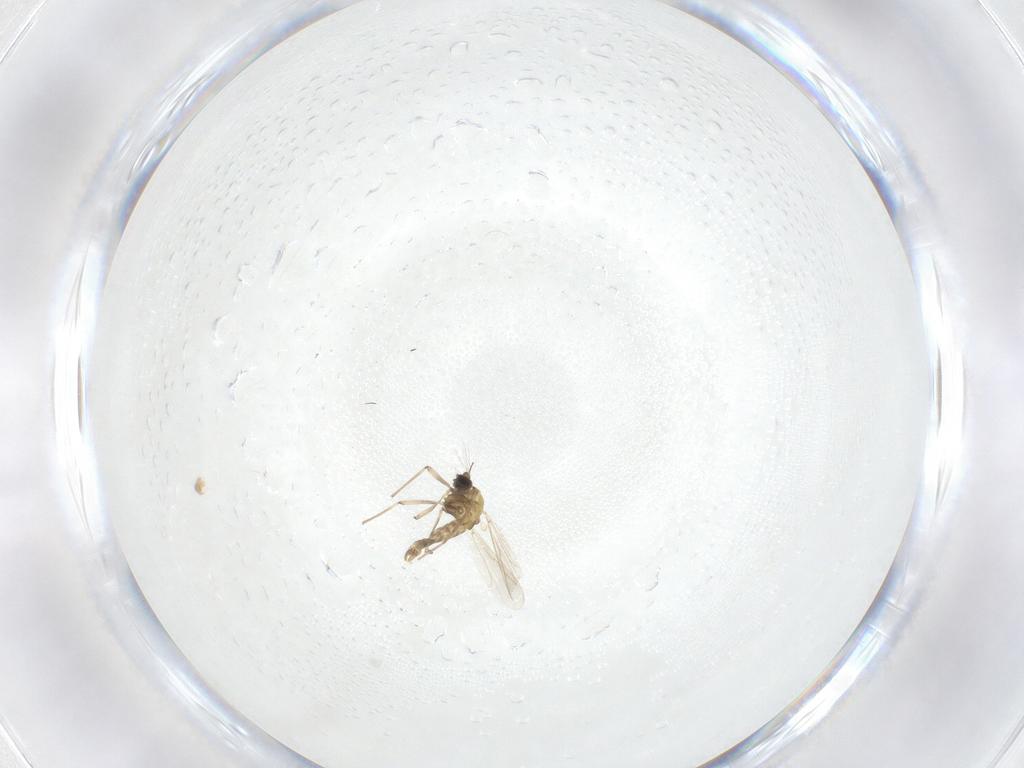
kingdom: Animalia
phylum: Arthropoda
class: Insecta
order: Diptera
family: Chironomidae
